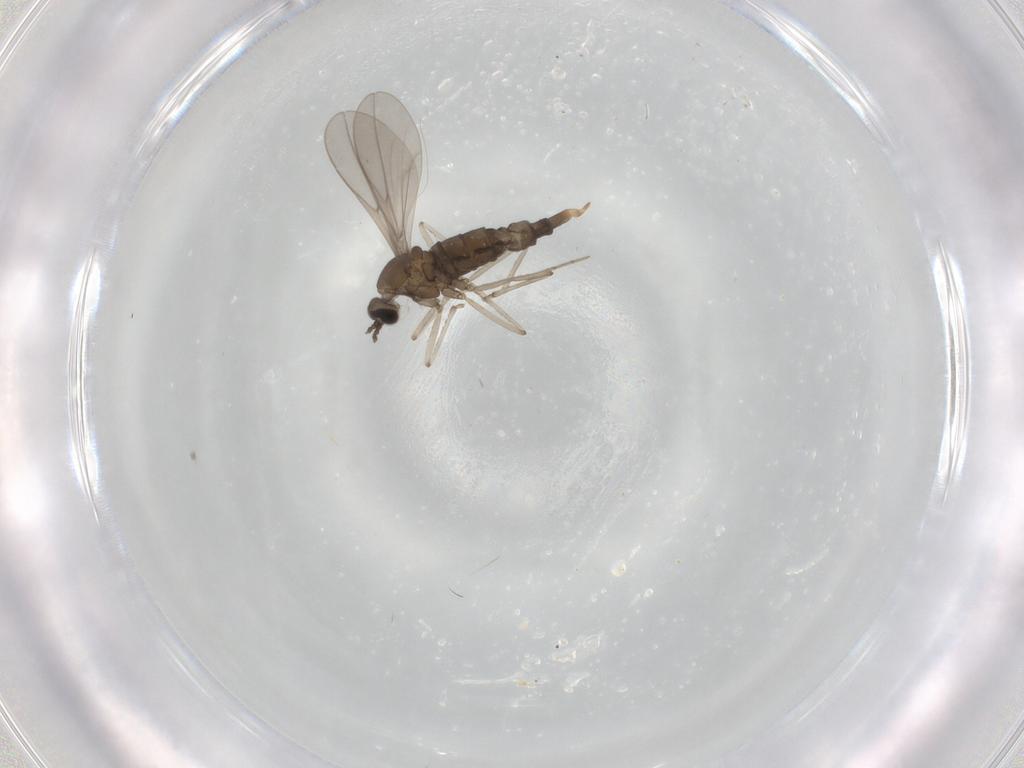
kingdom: Animalia
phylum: Arthropoda
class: Insecta
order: Diptera
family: Cecidomyiidae
